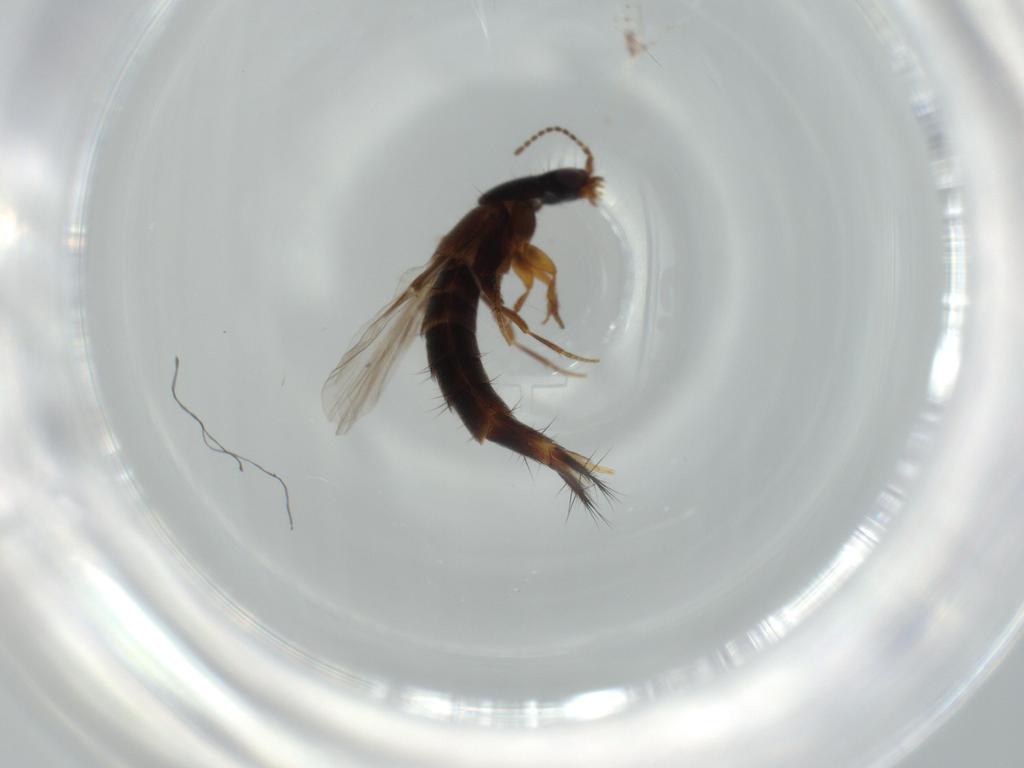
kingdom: Animalia
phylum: Arthropoda
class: Insecta
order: Coleoptera
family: Staphylinidae
